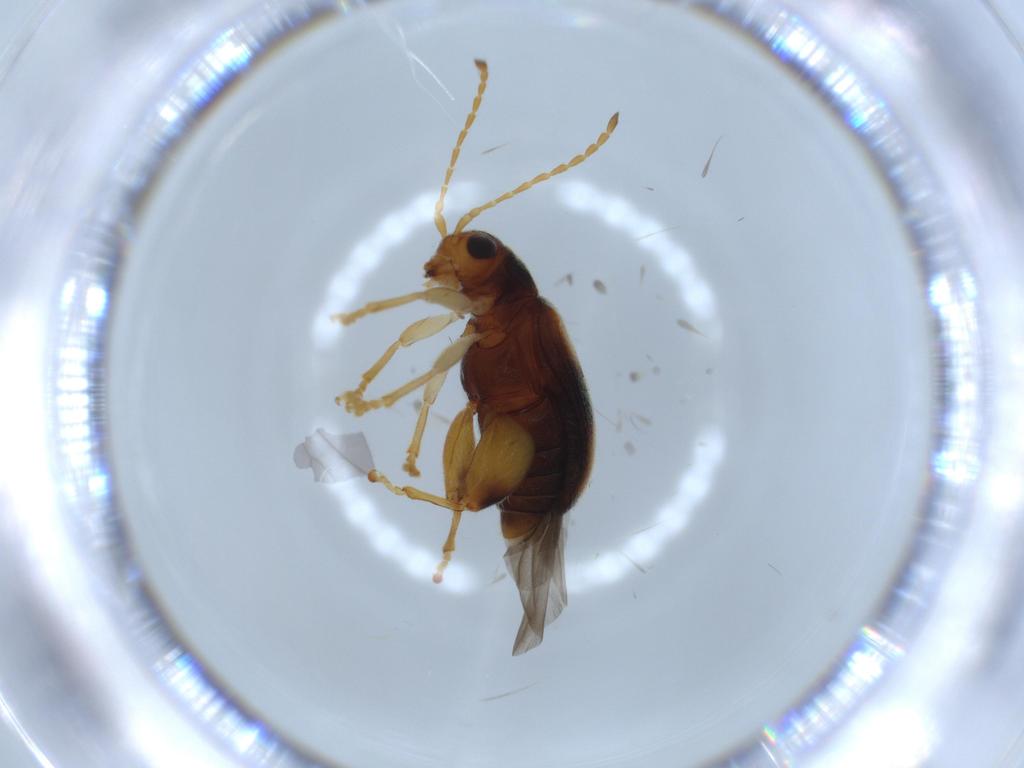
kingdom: Animalia
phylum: Arthropoda
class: Insecta
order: Coleoptera
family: Chrysomelidae
